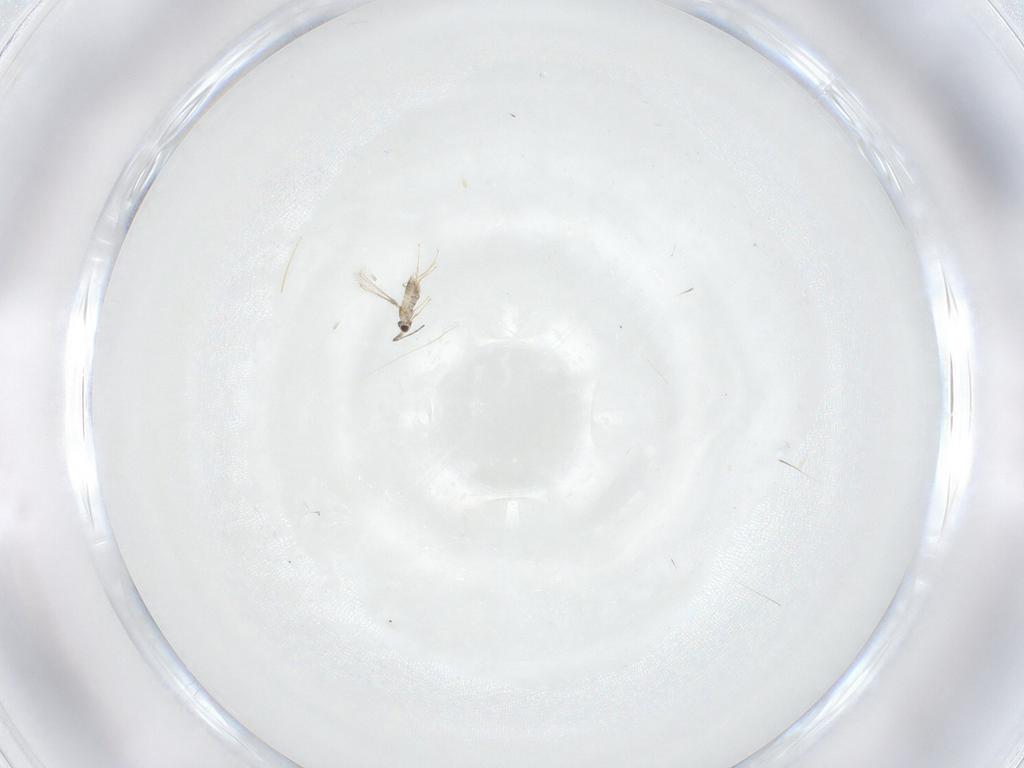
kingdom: Animalia
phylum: Arthropoda
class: Insecta
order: Hymenoptera
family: Mymaridae
